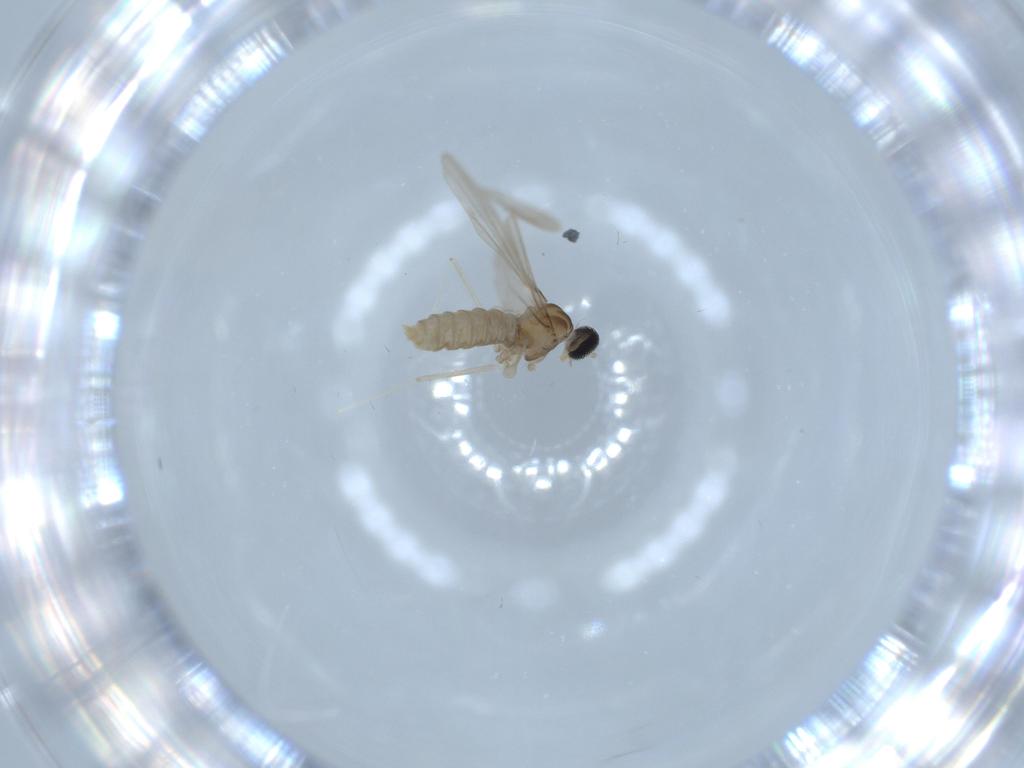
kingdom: Animalia
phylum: Arthropoda
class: Insecta
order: Diptera
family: Cecidomyiidae
